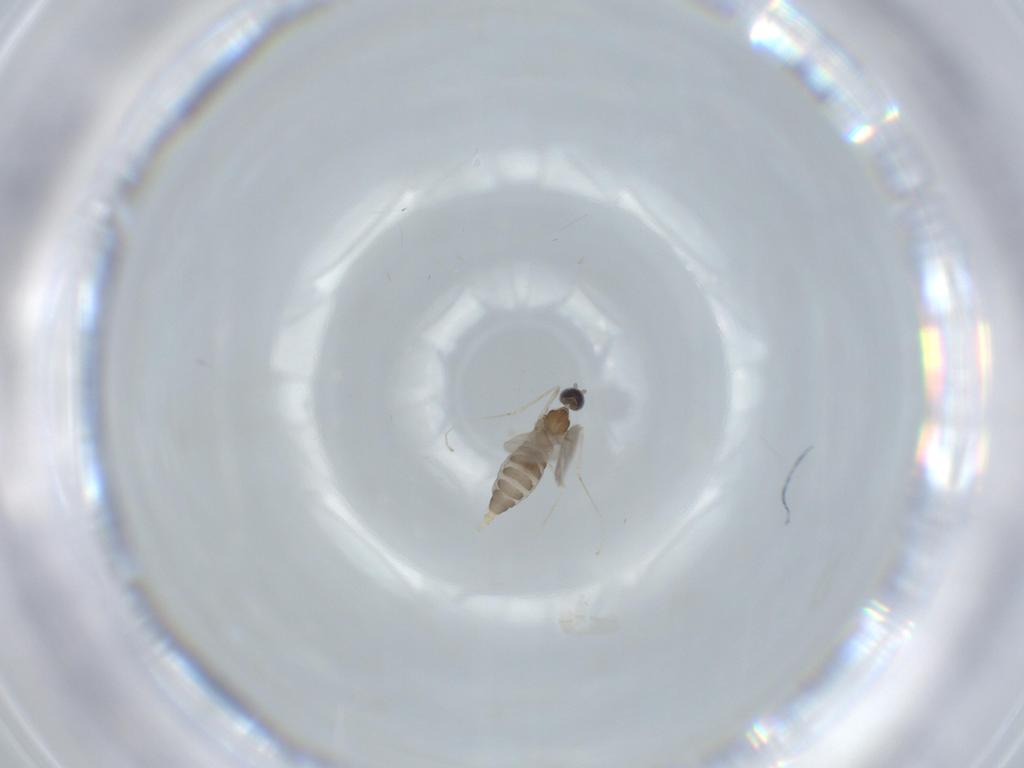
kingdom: Animalia
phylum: Arthropoda
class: Insecta
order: Diptera
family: Cecidomyiidae
